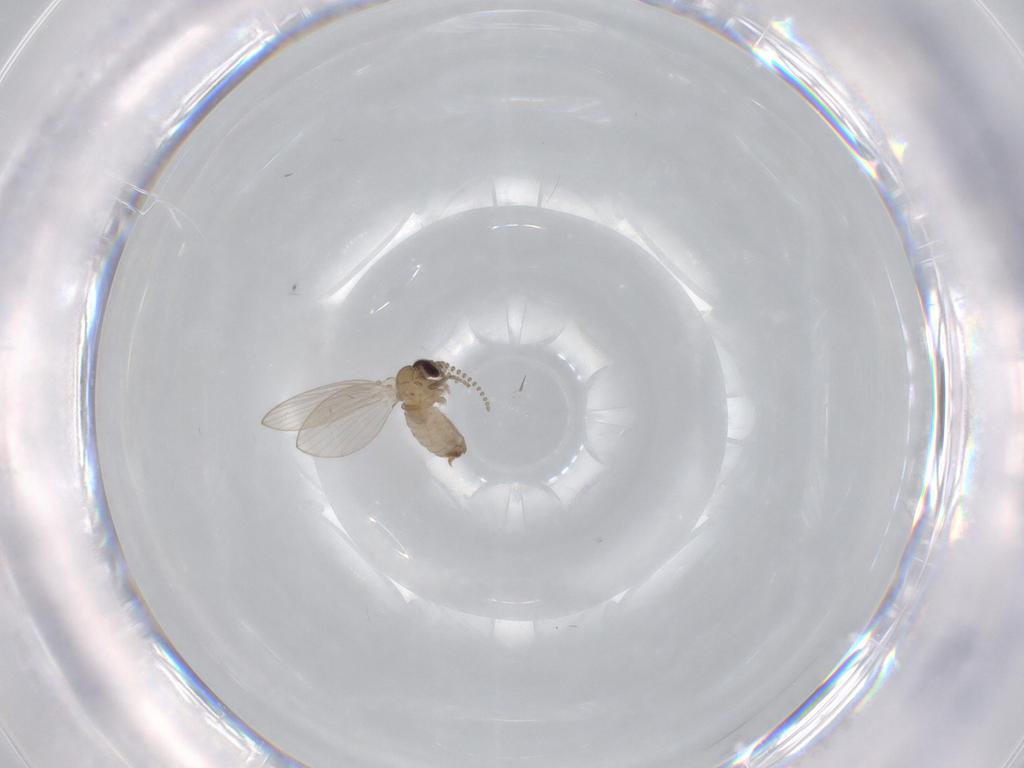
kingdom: Animalia
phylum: Arthropoda
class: Insecta
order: Diptera
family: Psychodidae
